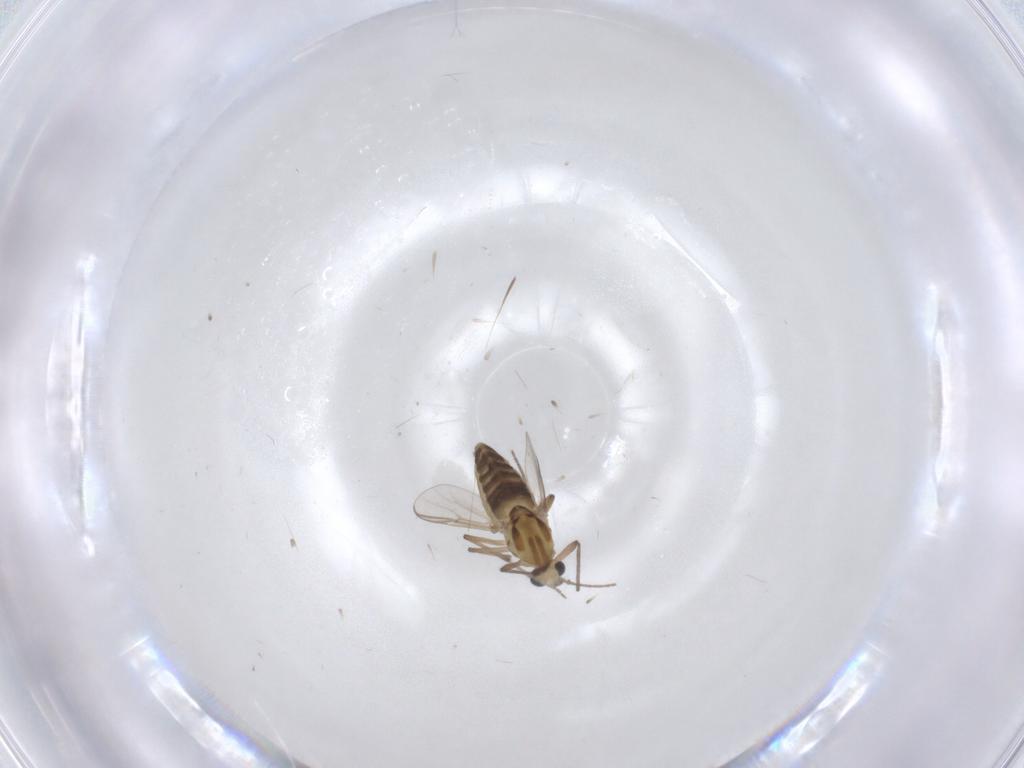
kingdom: Animalia
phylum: Arthropoda
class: Insecta
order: Diptera
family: Chironomidae
